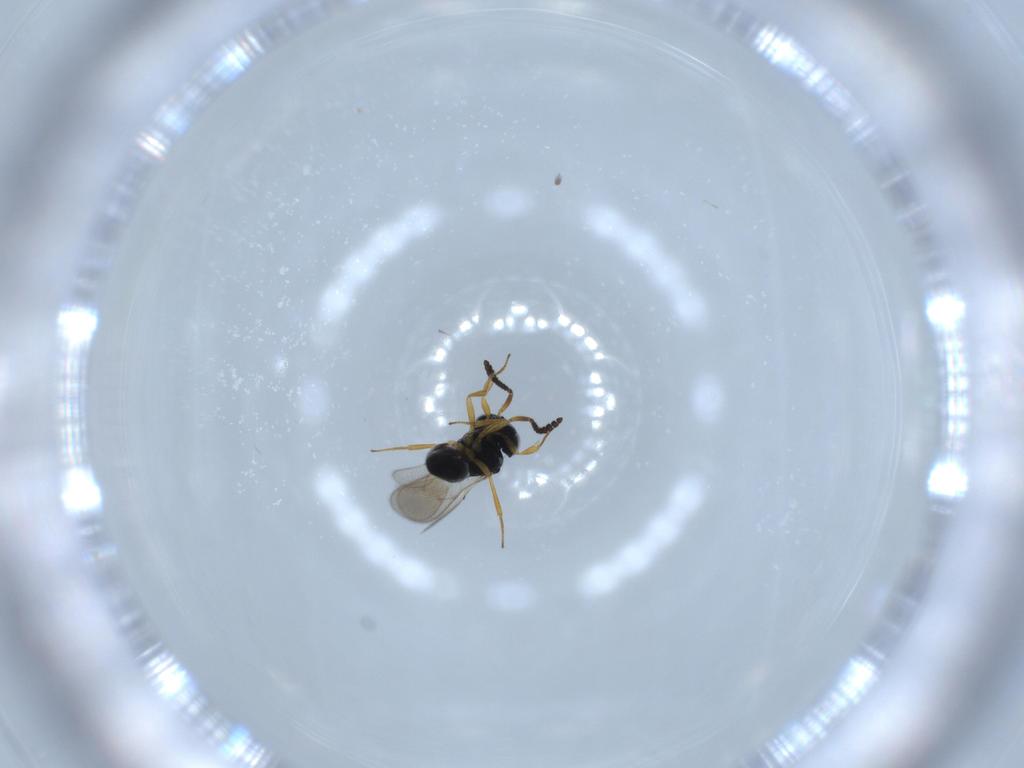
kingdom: Animalia
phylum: Arthropoda
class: Insecta
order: Hymenoptera
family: Scelionidae
